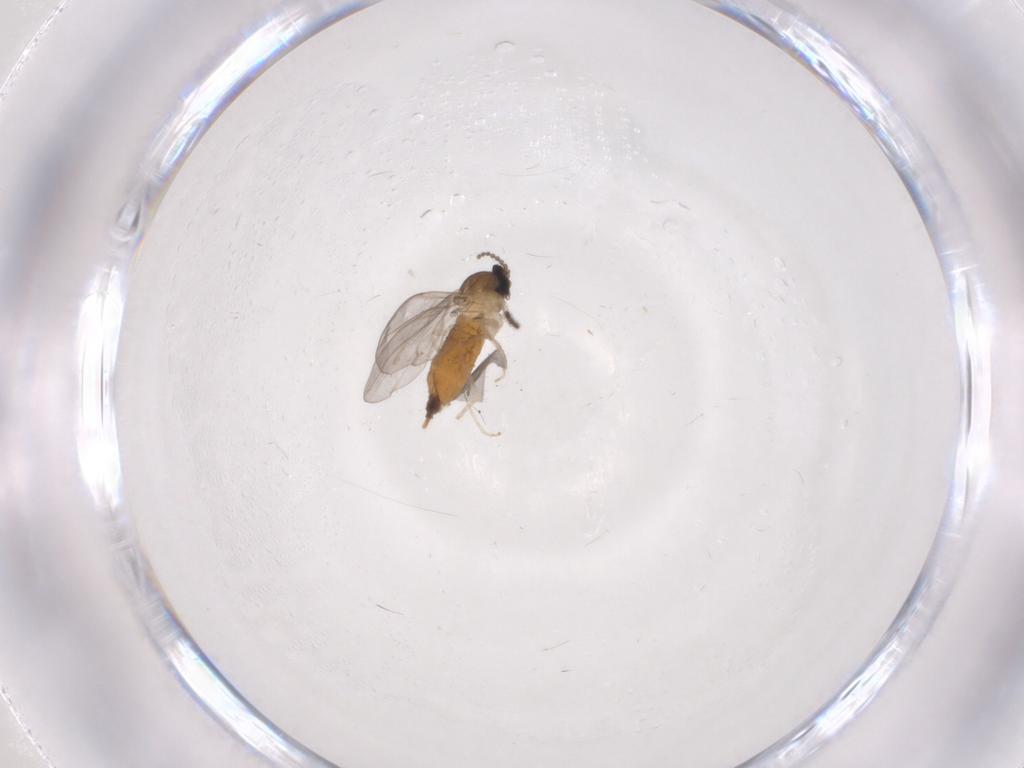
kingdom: Animalia
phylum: Arthropoda
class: Insecta
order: Diptera
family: Cecidomyiidae
